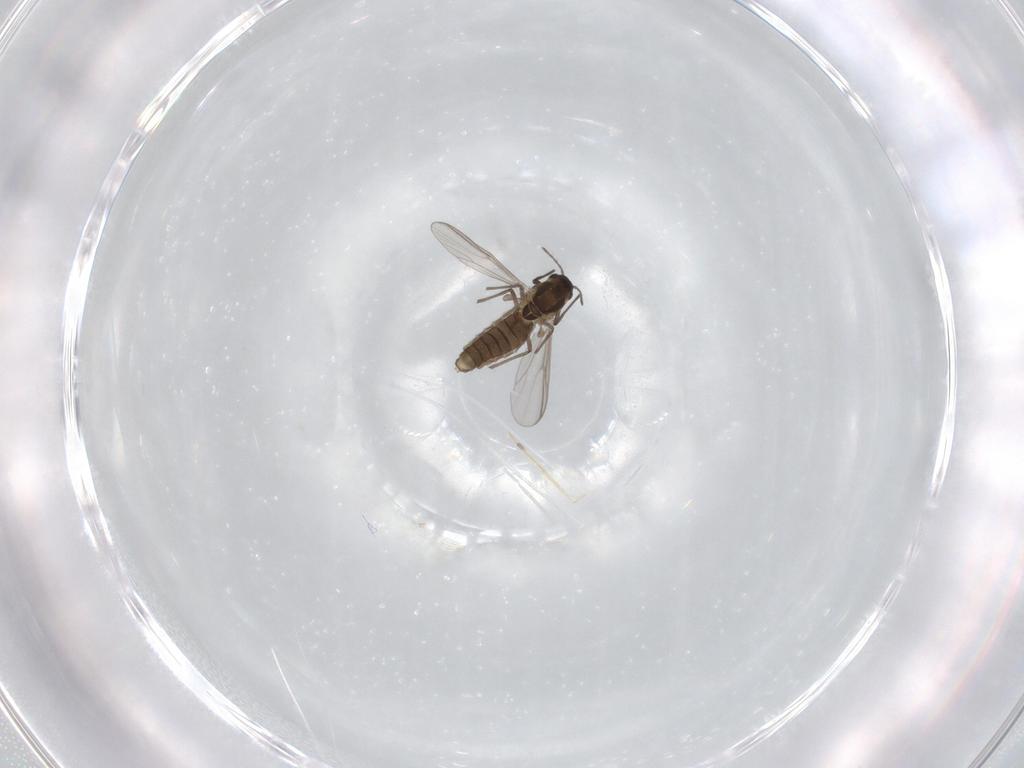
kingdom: Animalia
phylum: Arthropoda
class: Insecta
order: Diptera
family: Chironomidae
